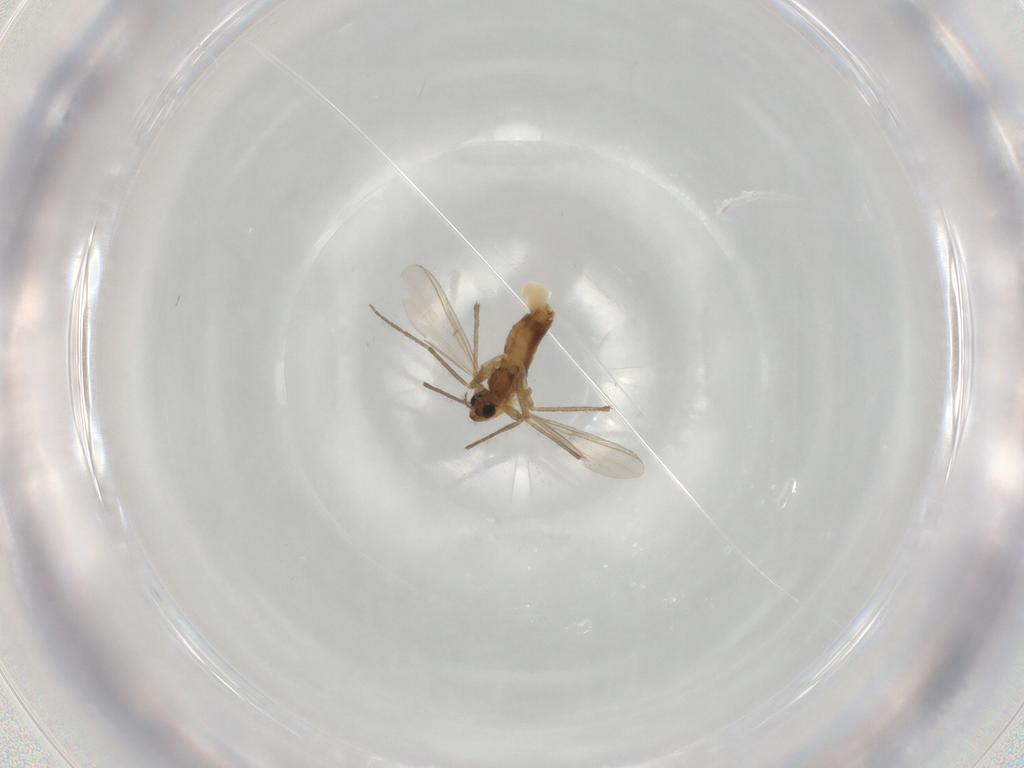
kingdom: Animalia
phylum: Arthropoda
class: Insecta
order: Diptera
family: Chironomidae
